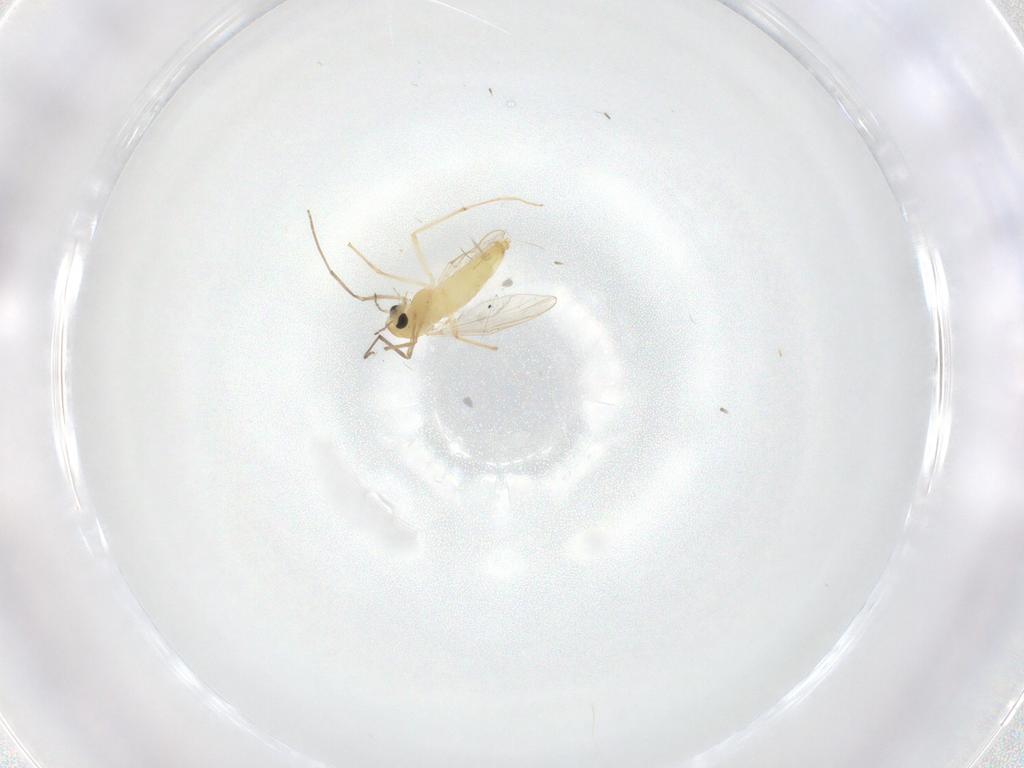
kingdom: Animalia
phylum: Arthropoda
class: Insecta
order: Diptera
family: Chironomidae
